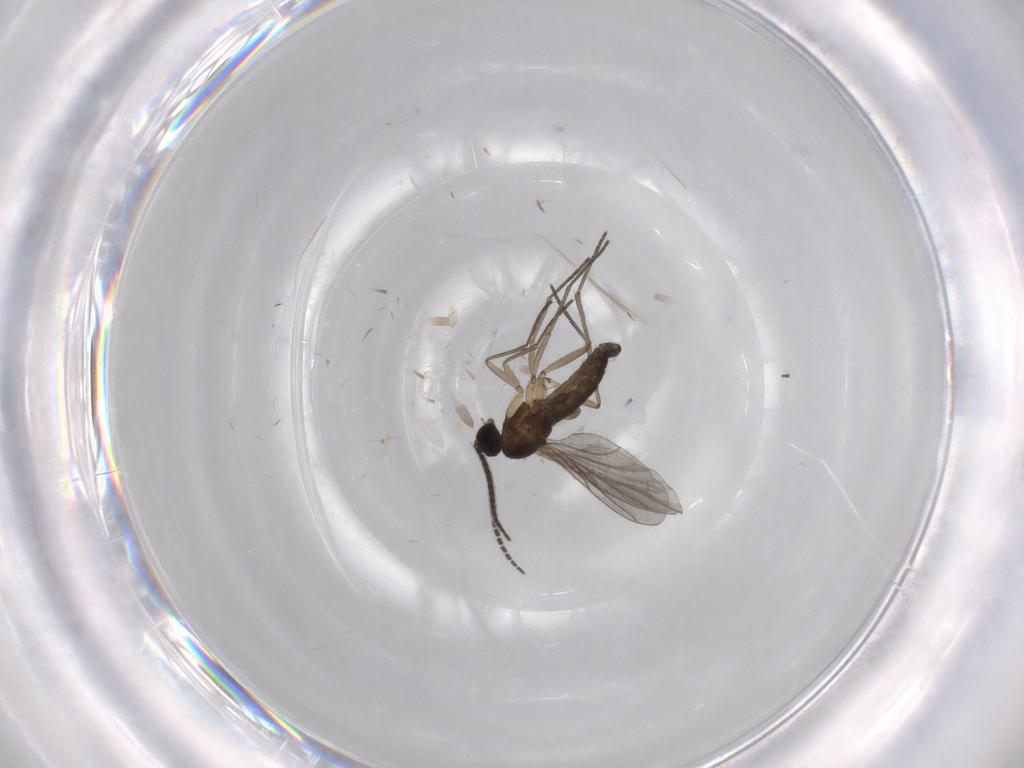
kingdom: Animalia
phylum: Arthropoda
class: Insecta
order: Diptera
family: Sciaridae
